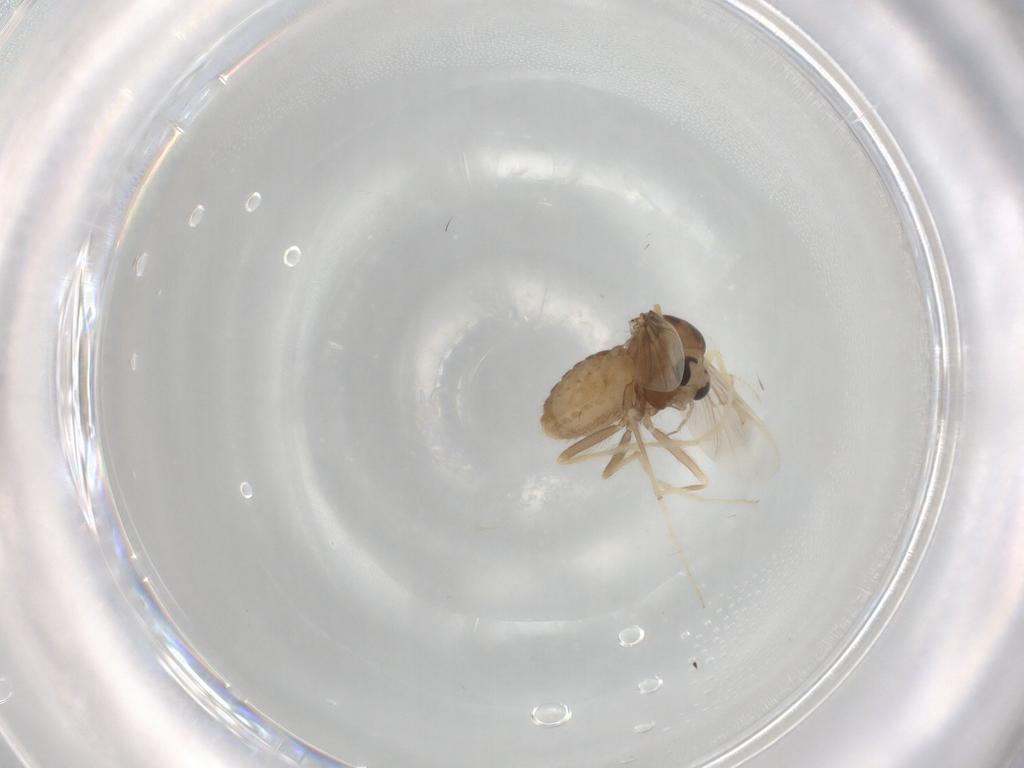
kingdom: Animalia
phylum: Arthropoda
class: Insecta
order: Diptera
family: Chironomidae
